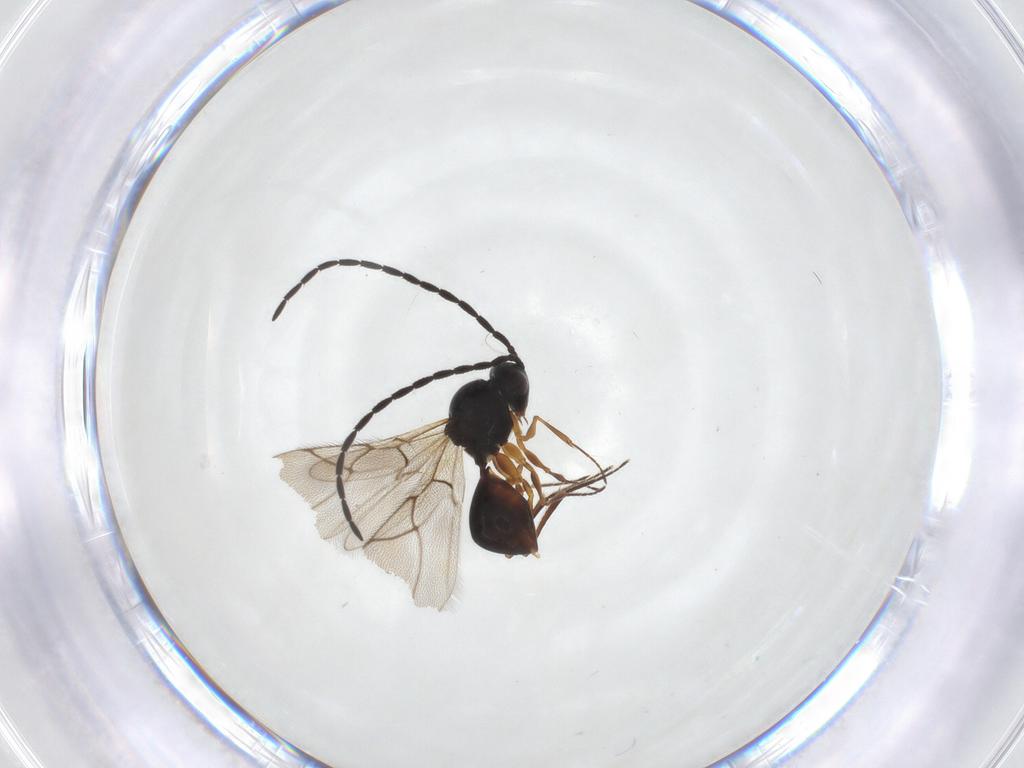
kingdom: Animalia
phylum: Arthropoda
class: Insecta
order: Hymenoptera
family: Figitidae
